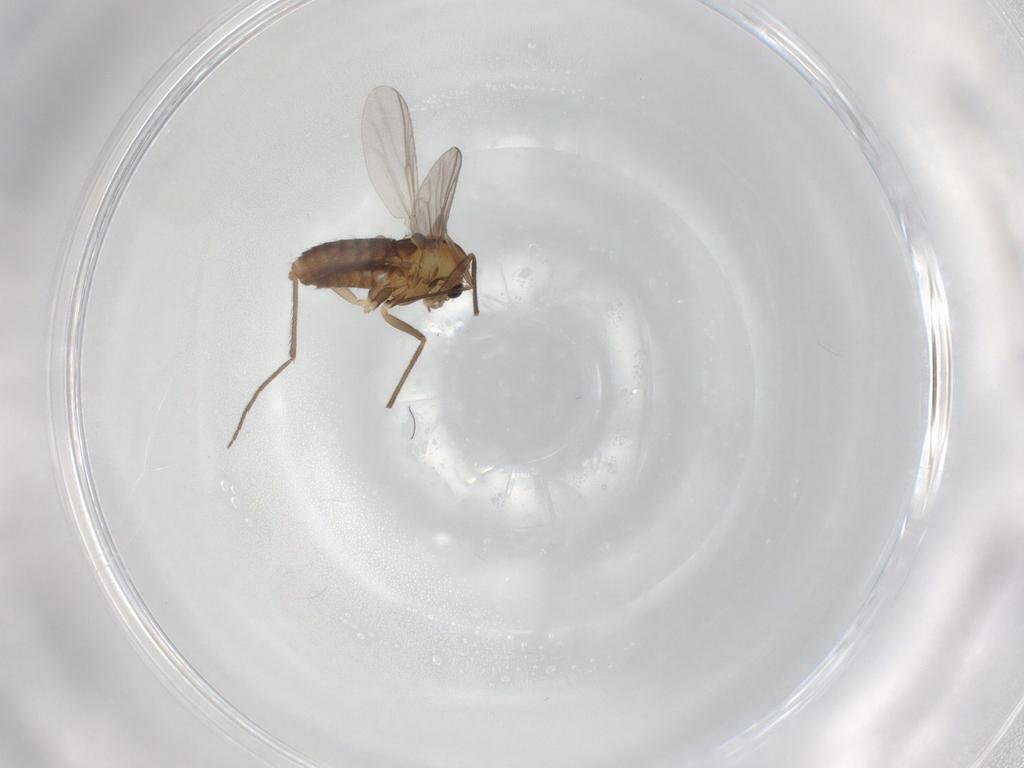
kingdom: Animalia
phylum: Arthropoda
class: Insecta
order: Diptera
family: Chironomidae
